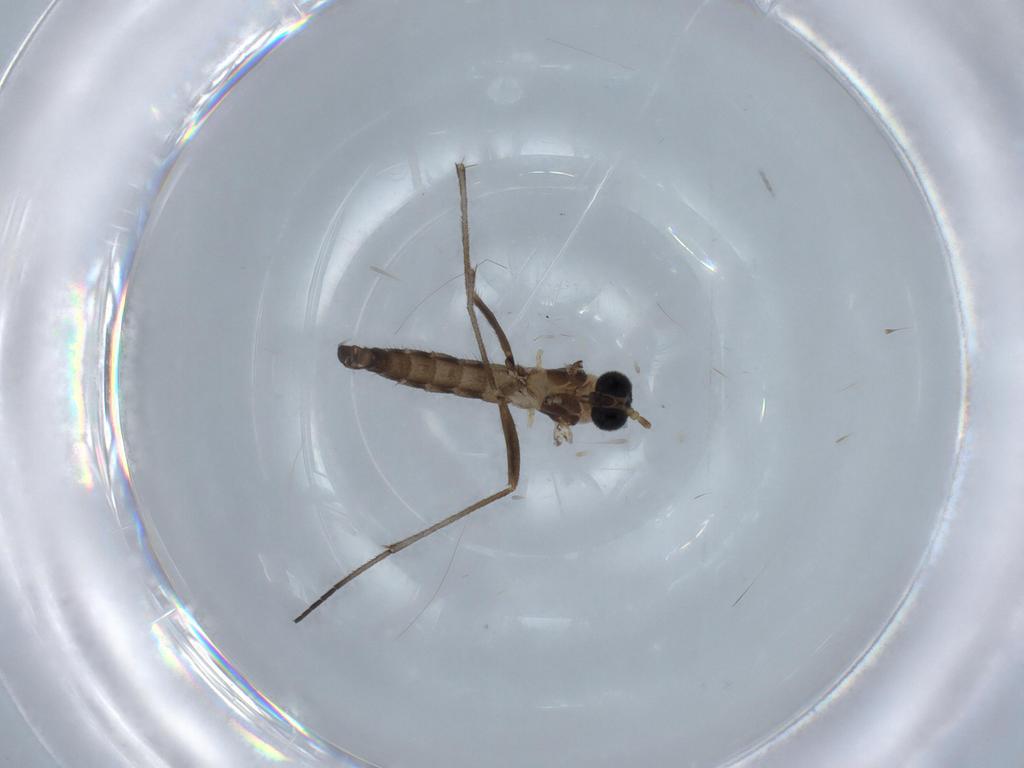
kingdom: Animalia
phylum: Arthropoda
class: Insecta
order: Diptera
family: Sciaridae
